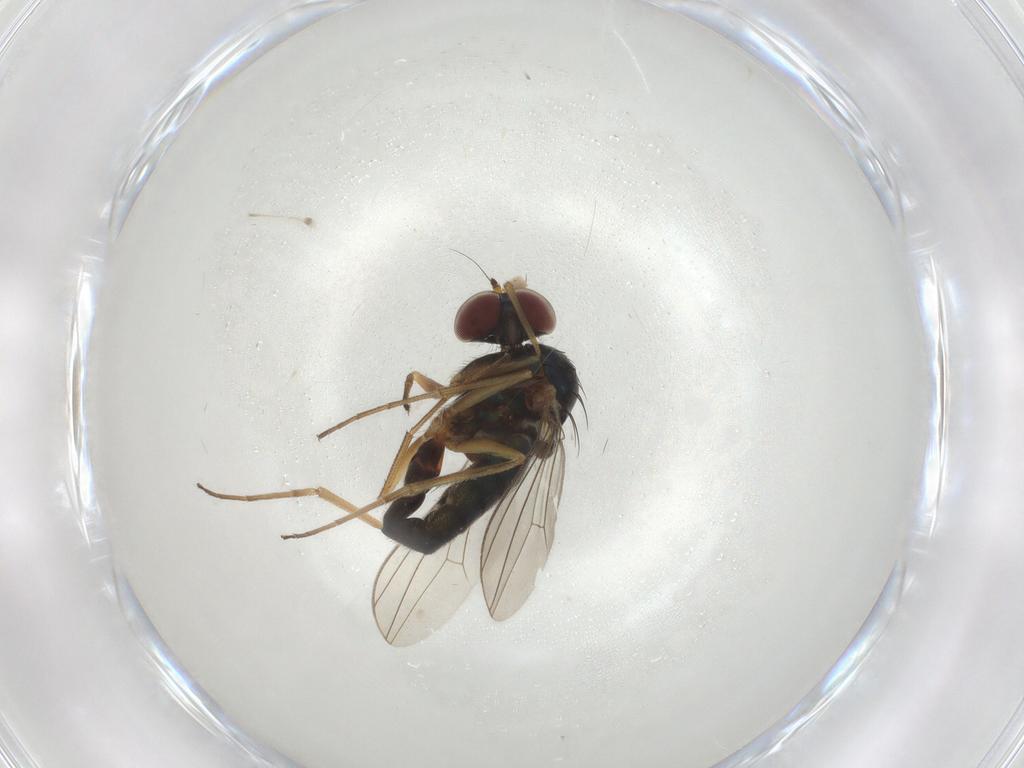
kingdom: Animalia
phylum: Arthropoda
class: Insecta
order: Diptera
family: Dolichopodidae
